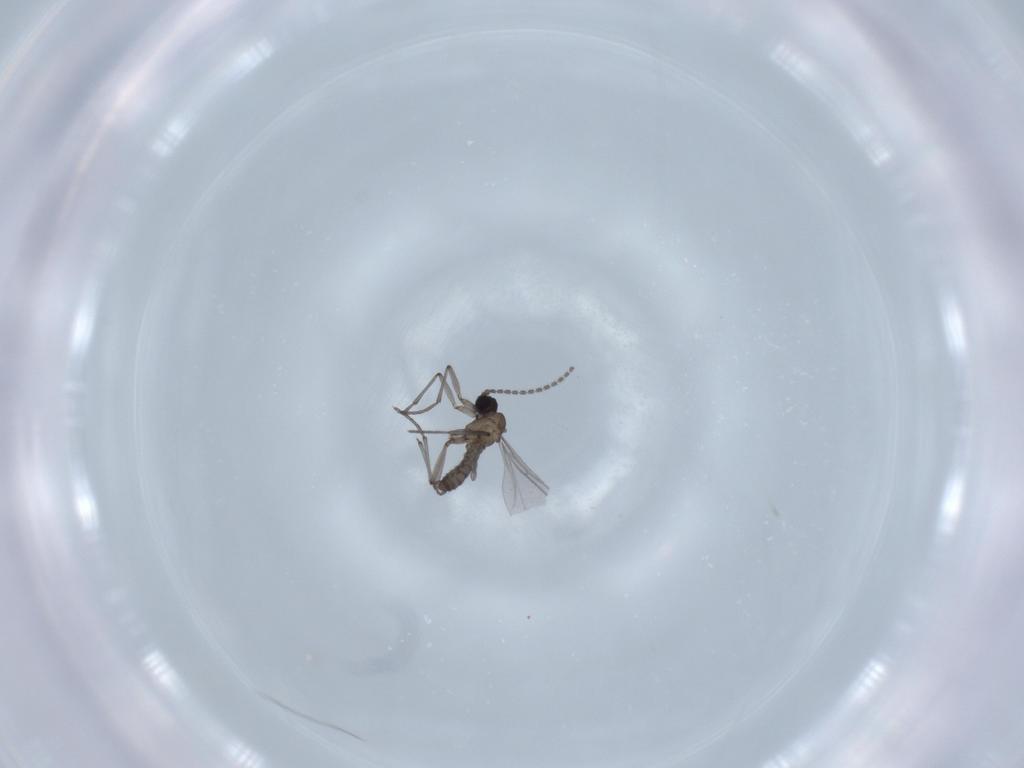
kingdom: Animalia
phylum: Arthropoda
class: Insecta
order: Diptera
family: Sciaridae
